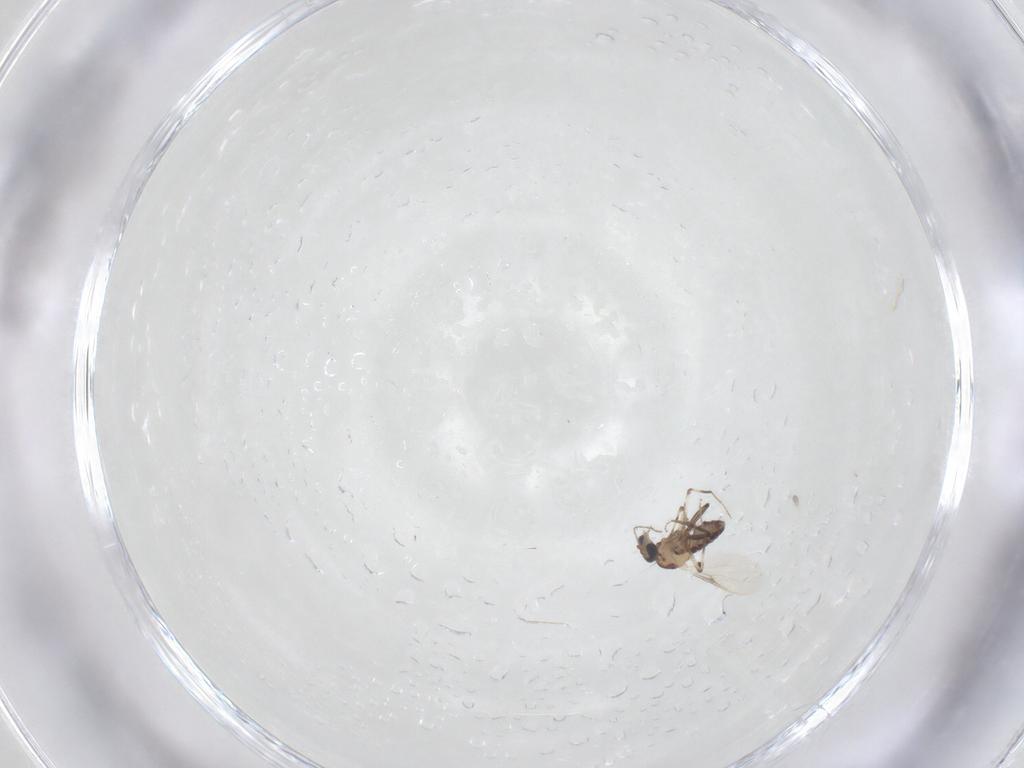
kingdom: Animalia
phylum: Arthropoda
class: Insecta
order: Diptera
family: Ceratopogonidae
